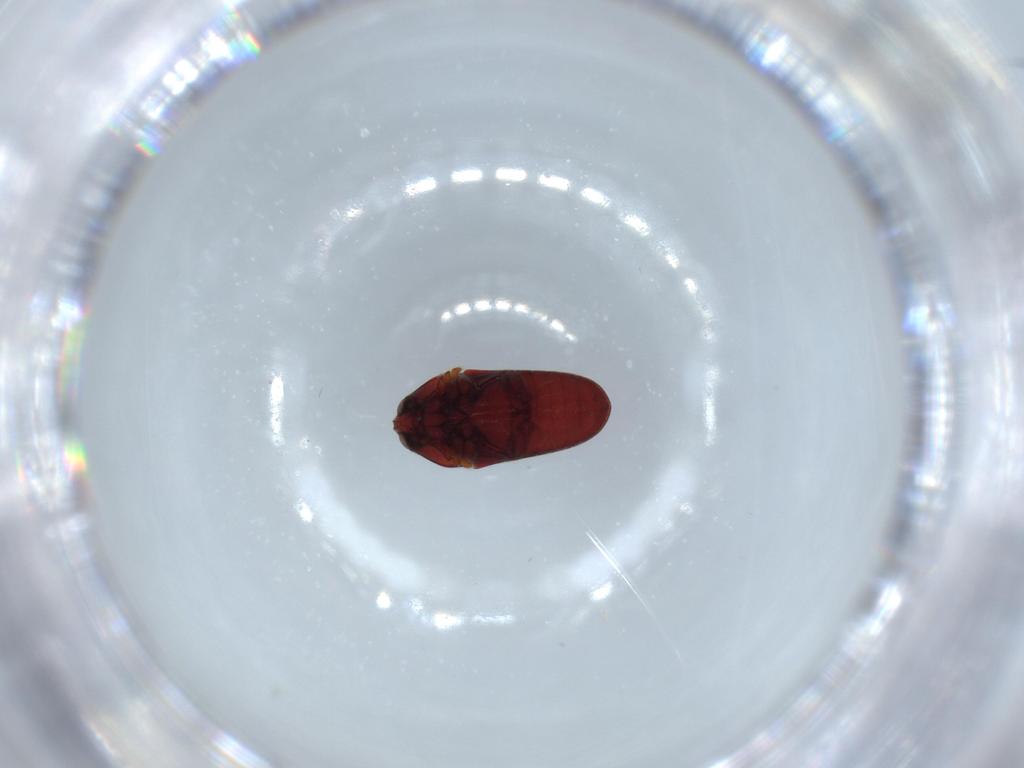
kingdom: Animalia
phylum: Arthropoda
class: Insecta
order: Coleoptera
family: Throscidae
